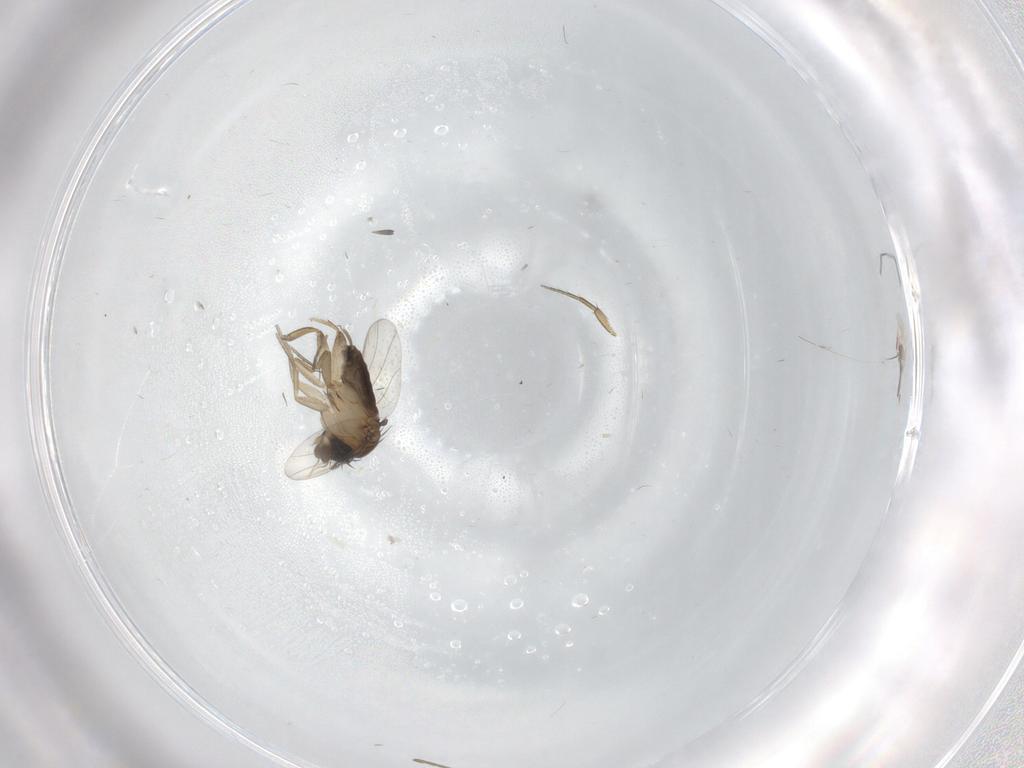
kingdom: Animalia
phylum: Arthropoda
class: Insecta
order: Diptera
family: Phoridae
